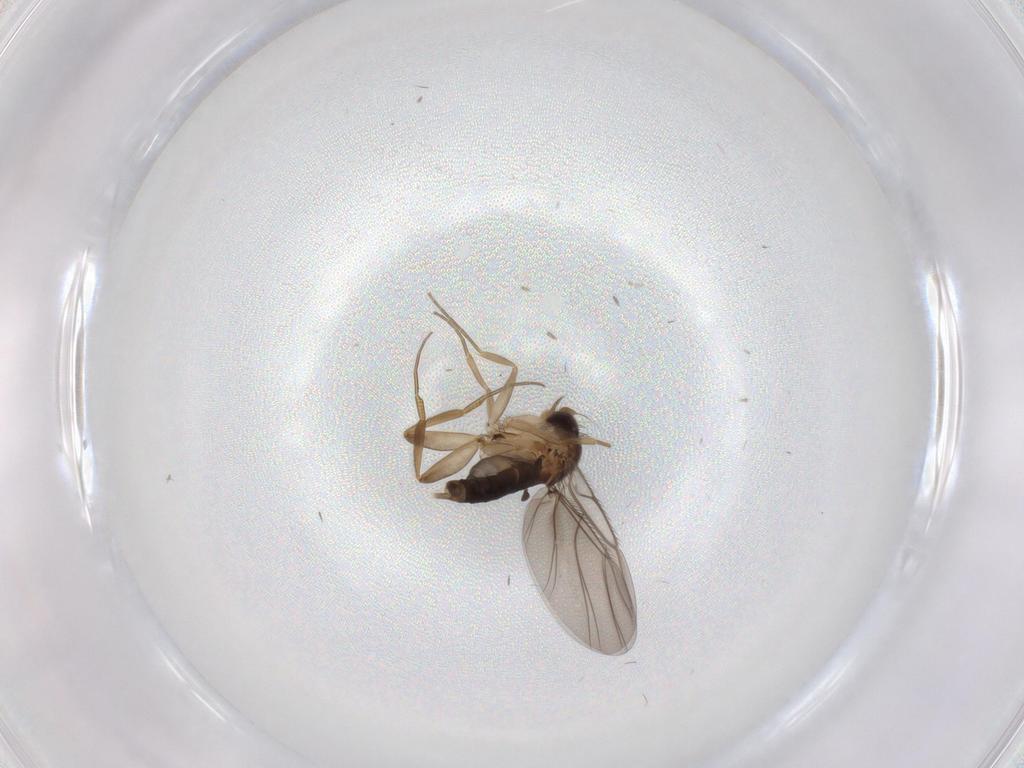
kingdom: Animalia
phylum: Arthropoda
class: Insecta
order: Diptera
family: Phoridae
